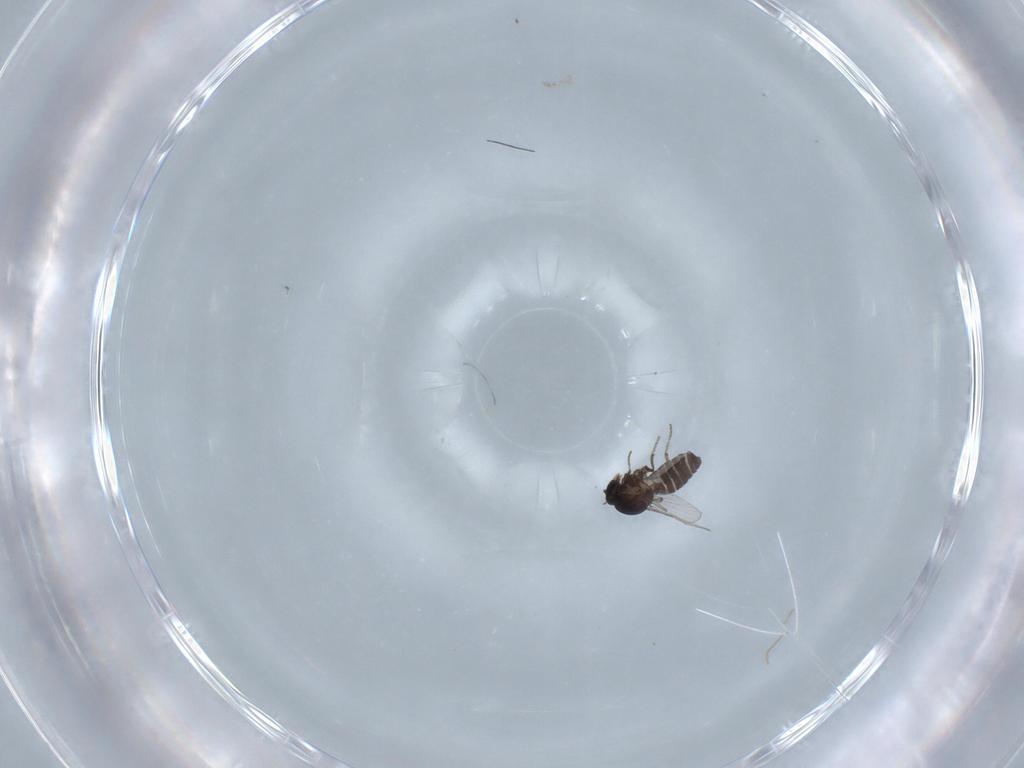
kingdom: Animalia
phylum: Arthropoda
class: Insecta
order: Diptera
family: Ceratopogonidae
